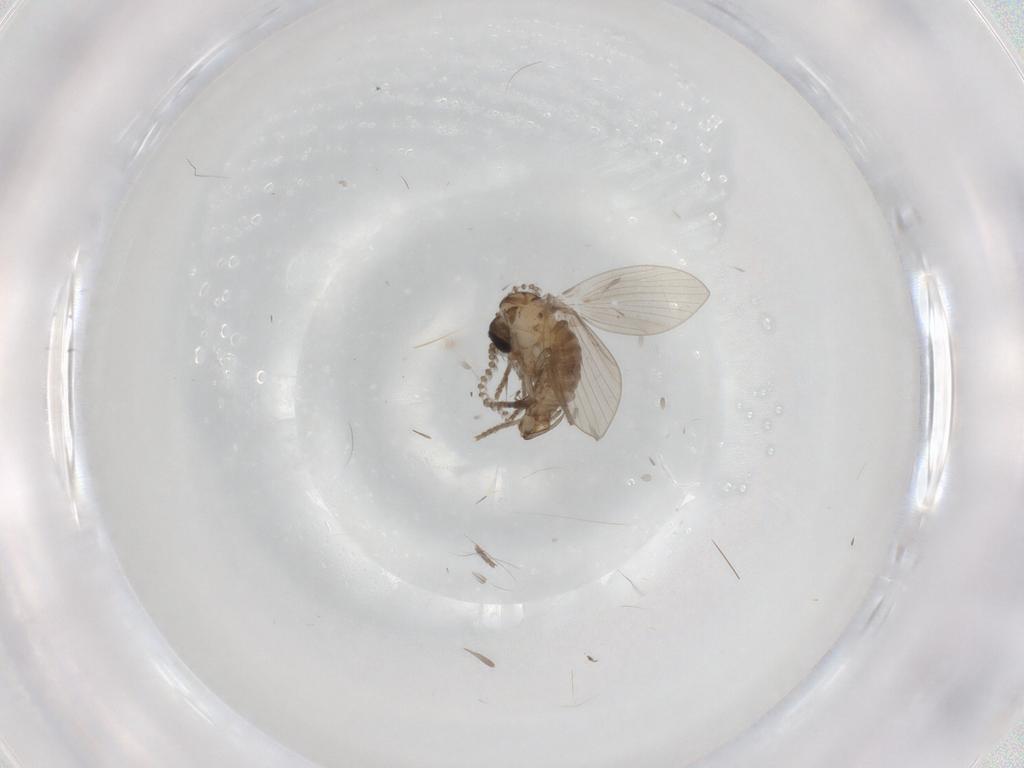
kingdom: Animalia
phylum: Arthropoda
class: Insecta
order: Diptera
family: Psychodidae
